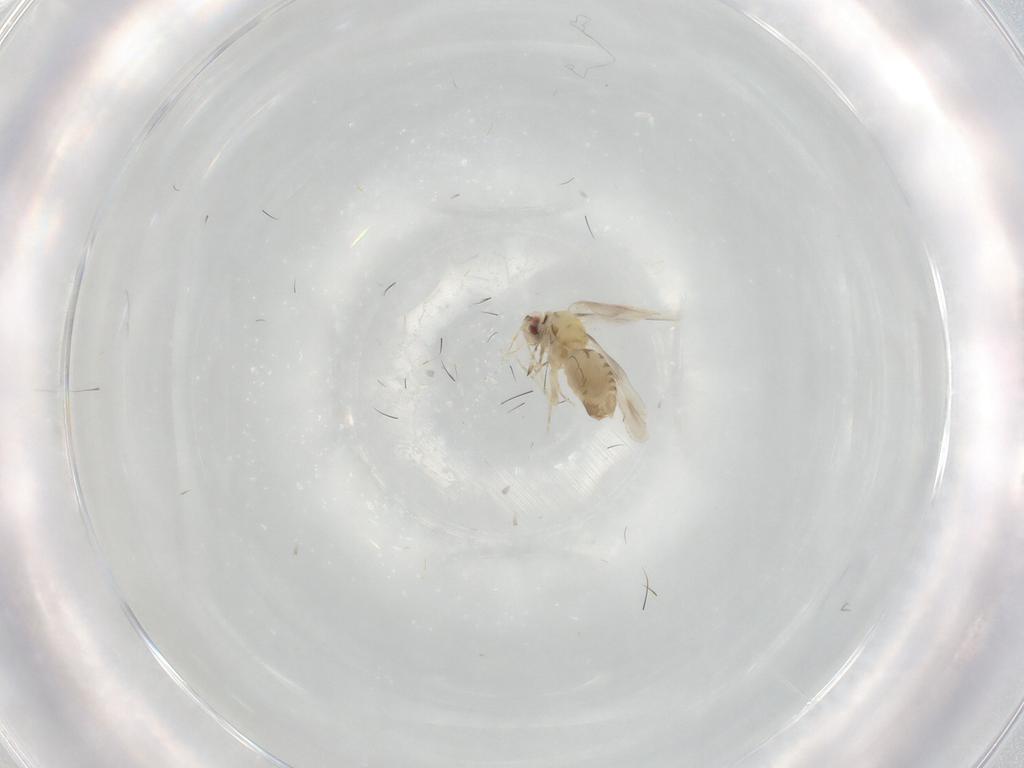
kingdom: Animalia
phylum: Arthropoda
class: Insecta
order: Hemiptera
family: Aleyrodidae
